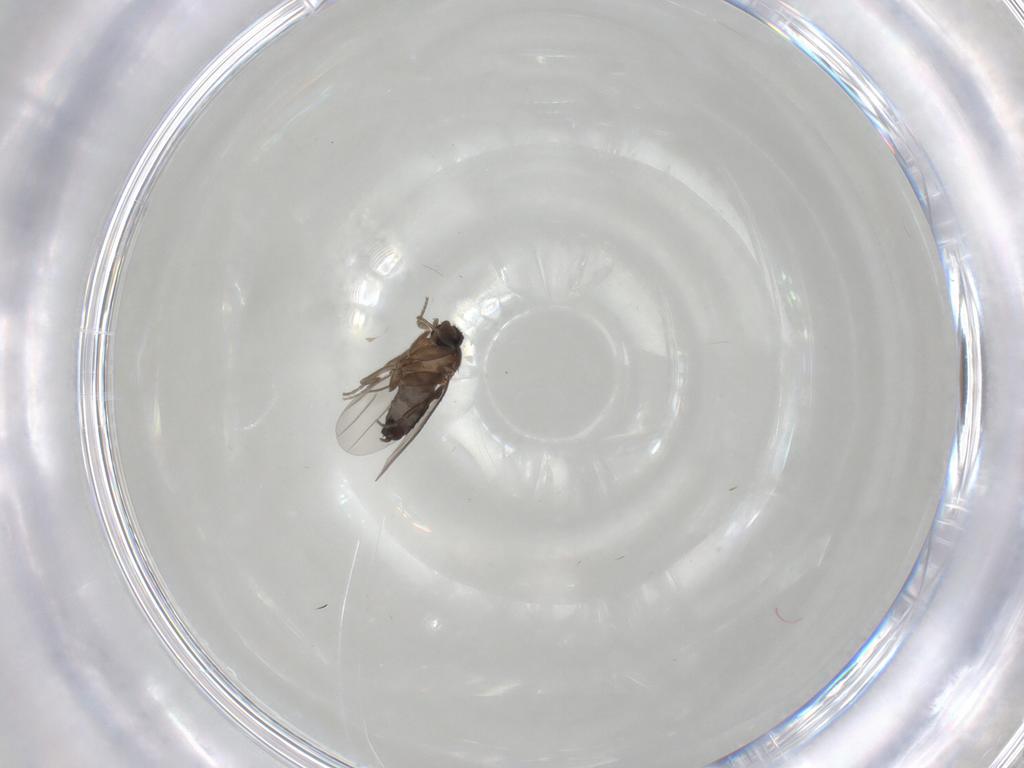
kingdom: Animalia
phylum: Arthropoda
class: Insecta
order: Diptera
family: Phoridae
